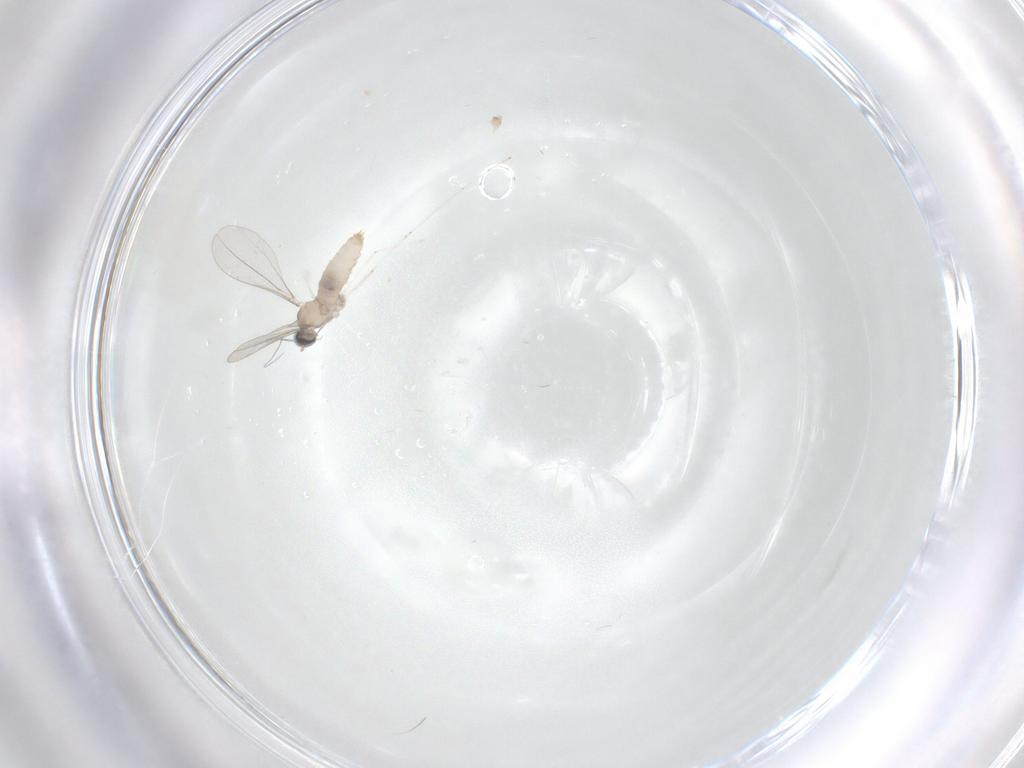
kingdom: Animalia
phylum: Arthropoda
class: Insecta
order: Diptera
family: Cecidomyiidae
